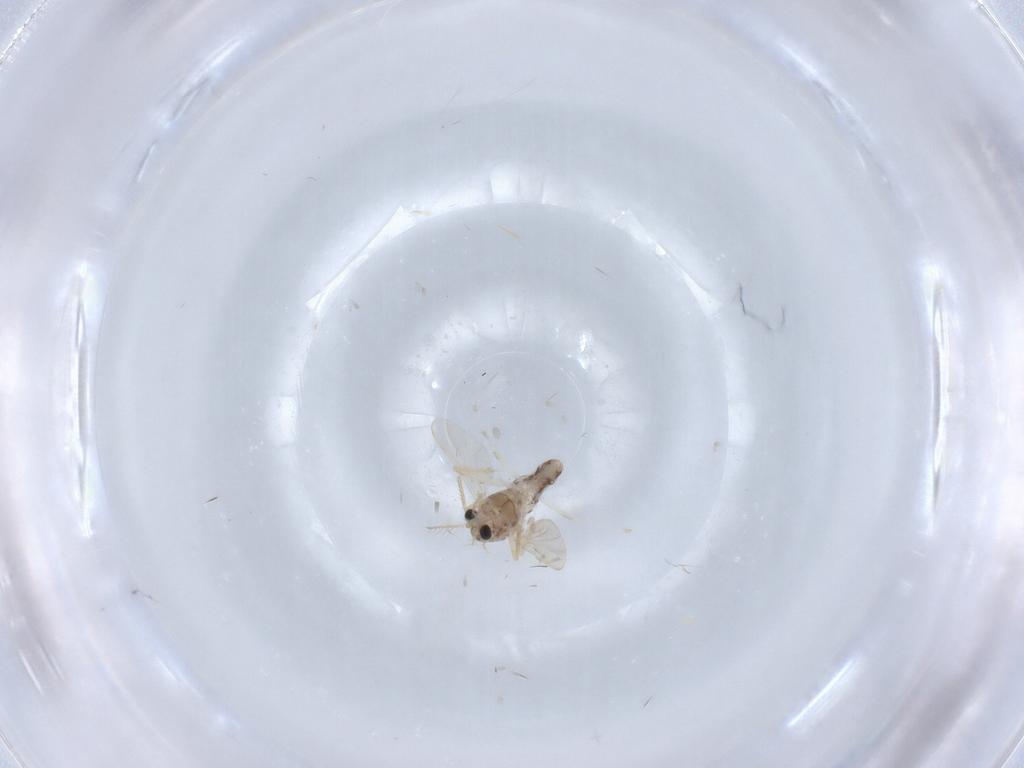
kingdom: Animalia
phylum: Arthropoda
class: Insecta
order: Diptera
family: Chironomidae
